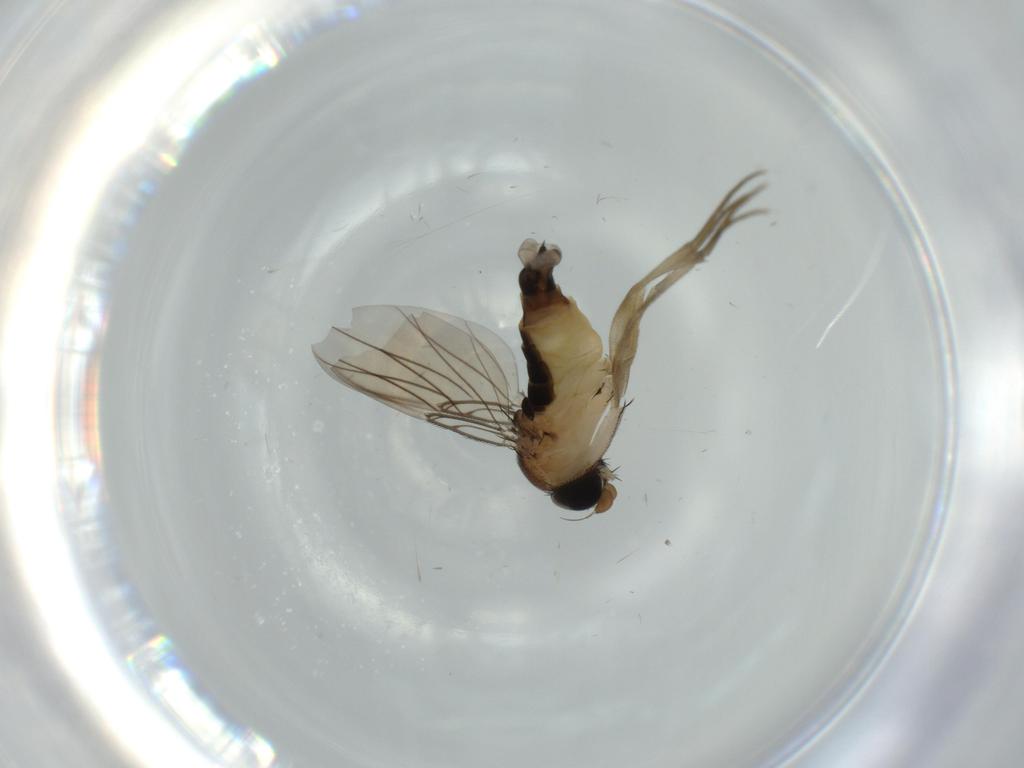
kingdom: Animalia
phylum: Arthropoda
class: Insecta
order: Diptera
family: Phoridae
